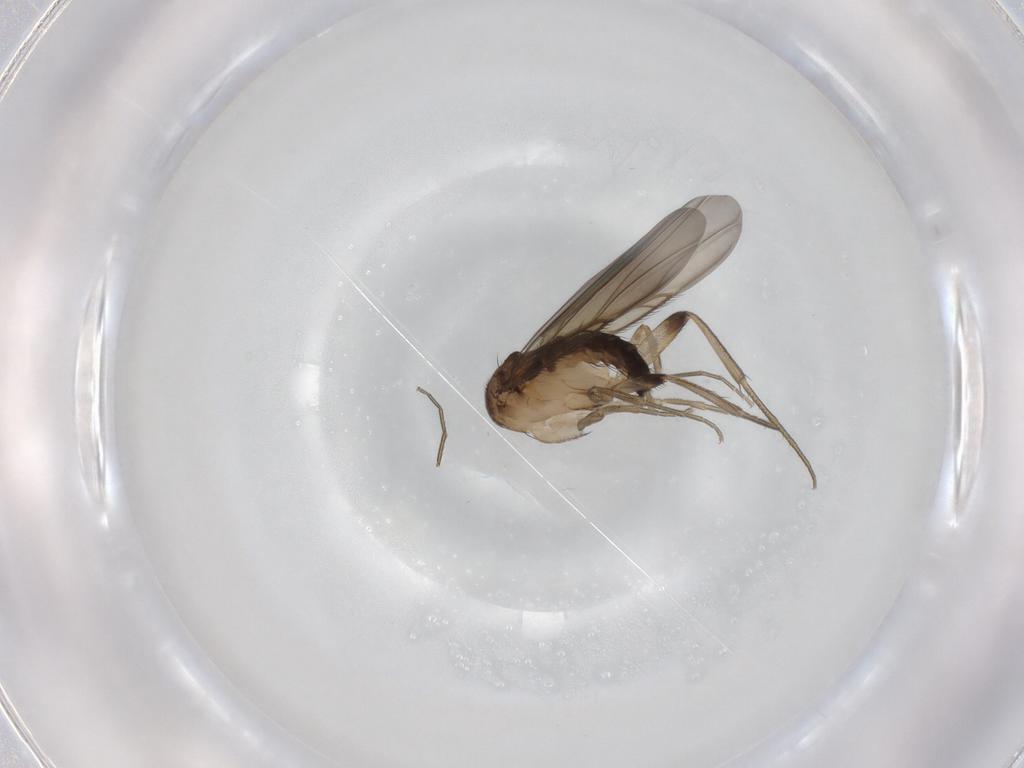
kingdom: Animalia
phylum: Arthropoda
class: Insecta
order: Diptera
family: Phoridae
